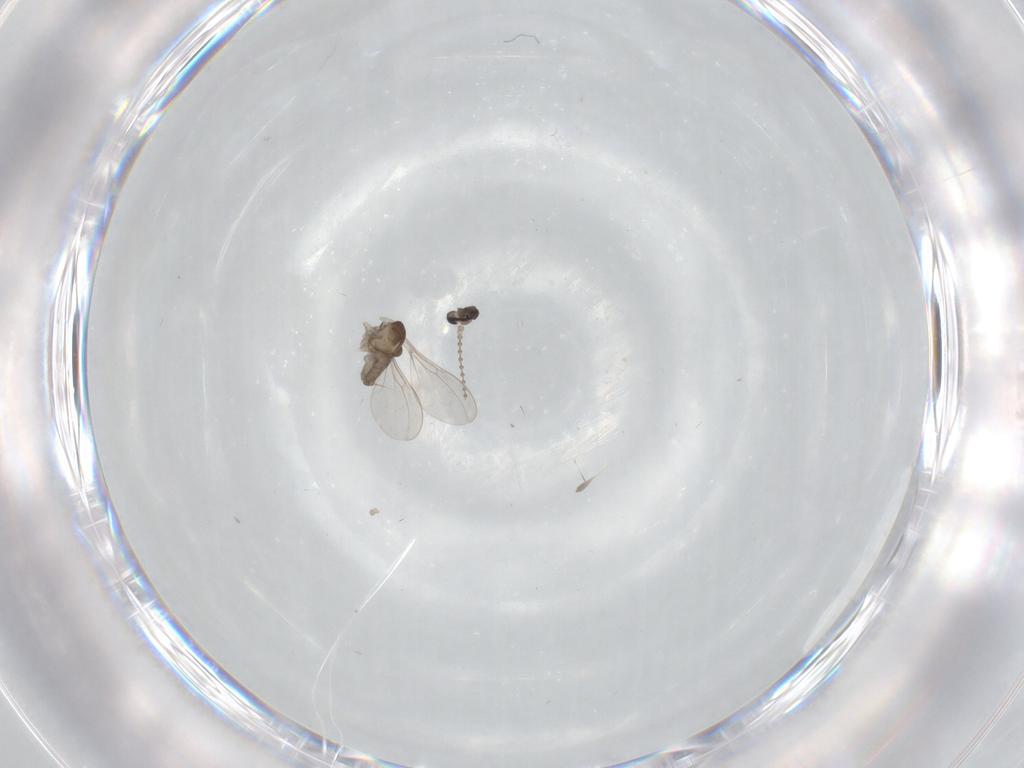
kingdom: Animalia
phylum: Arthropoda
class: Insecta
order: Diptera
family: Cecidomyiidae
